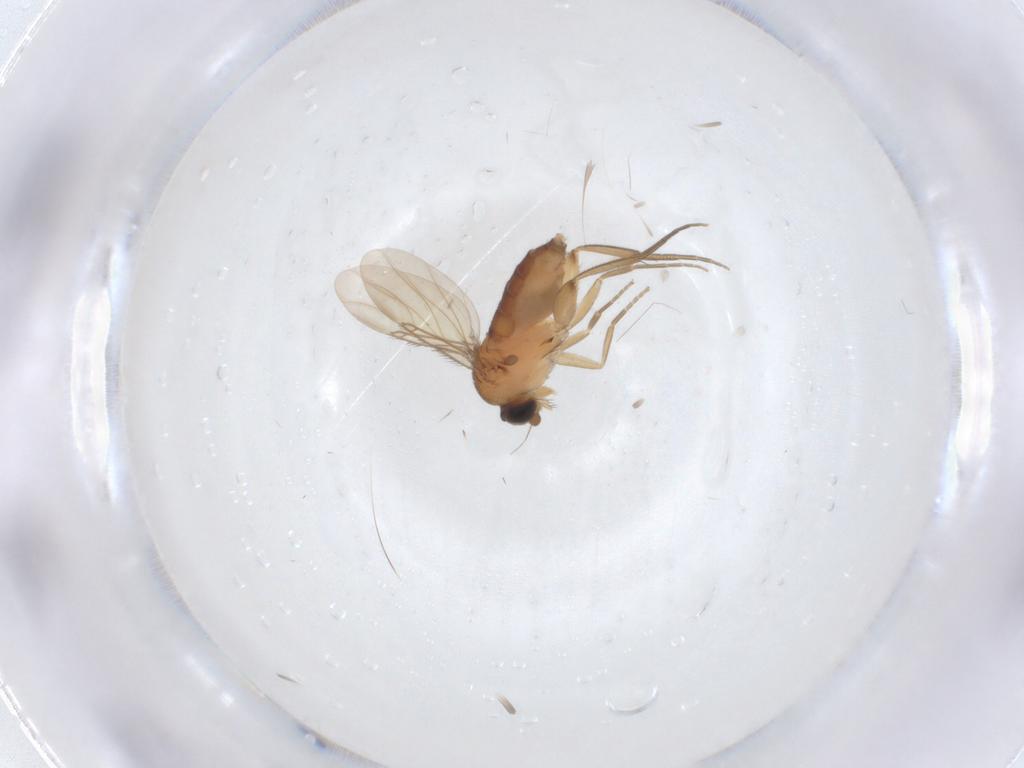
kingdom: Animalia
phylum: Arthropoda
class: Insecta
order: Diptera
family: Phoridae
